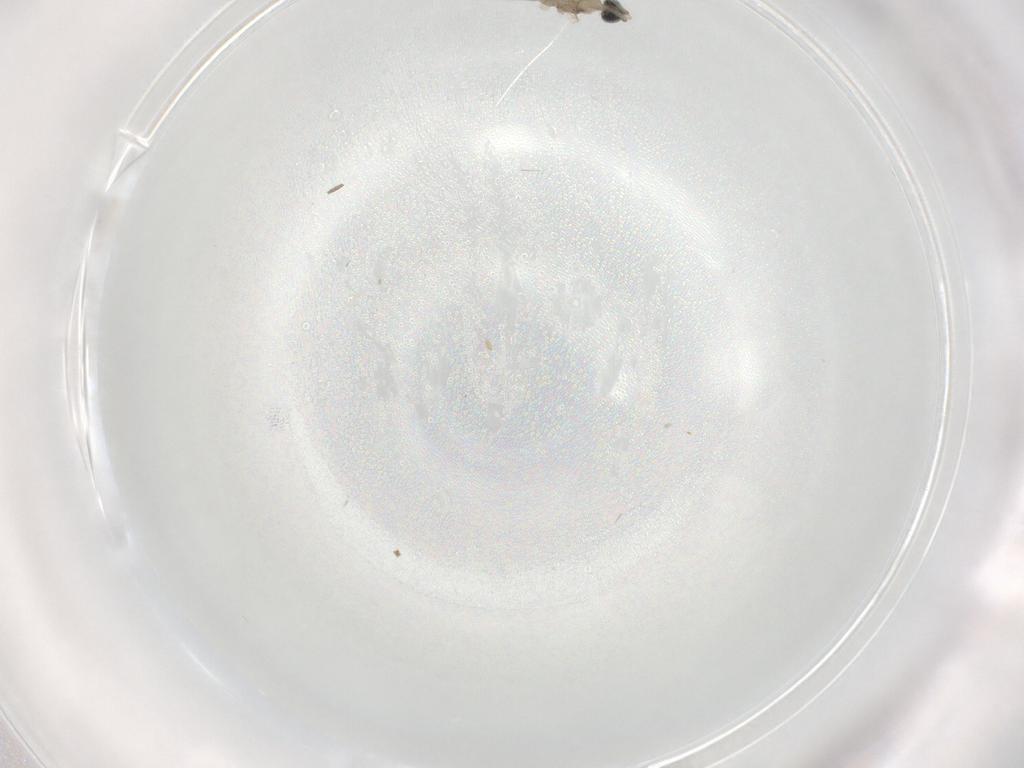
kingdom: Animalia
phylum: Arthropoda
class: Insecta
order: Diptera
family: Cecidomyiidae
